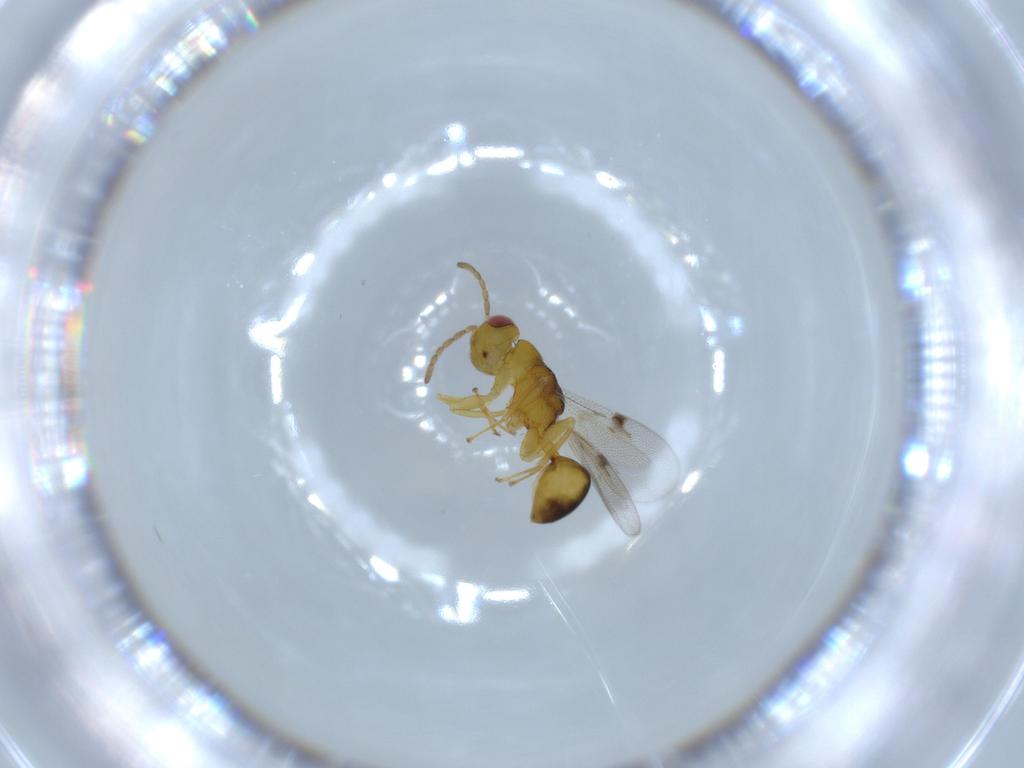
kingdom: Animalia
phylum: Arthropoda
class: Insecta
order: Hymenoptera
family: Eurytomidae
